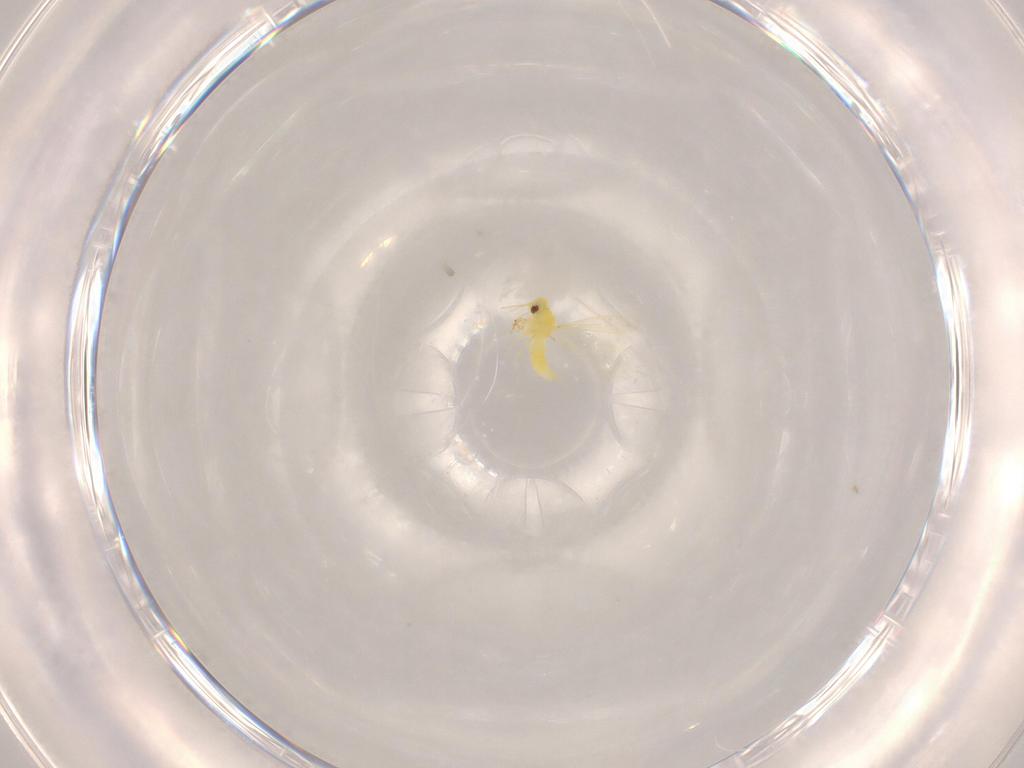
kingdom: Animalia
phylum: Arthropoda
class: Insecta
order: Hemiptera
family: Aleyrodidae
